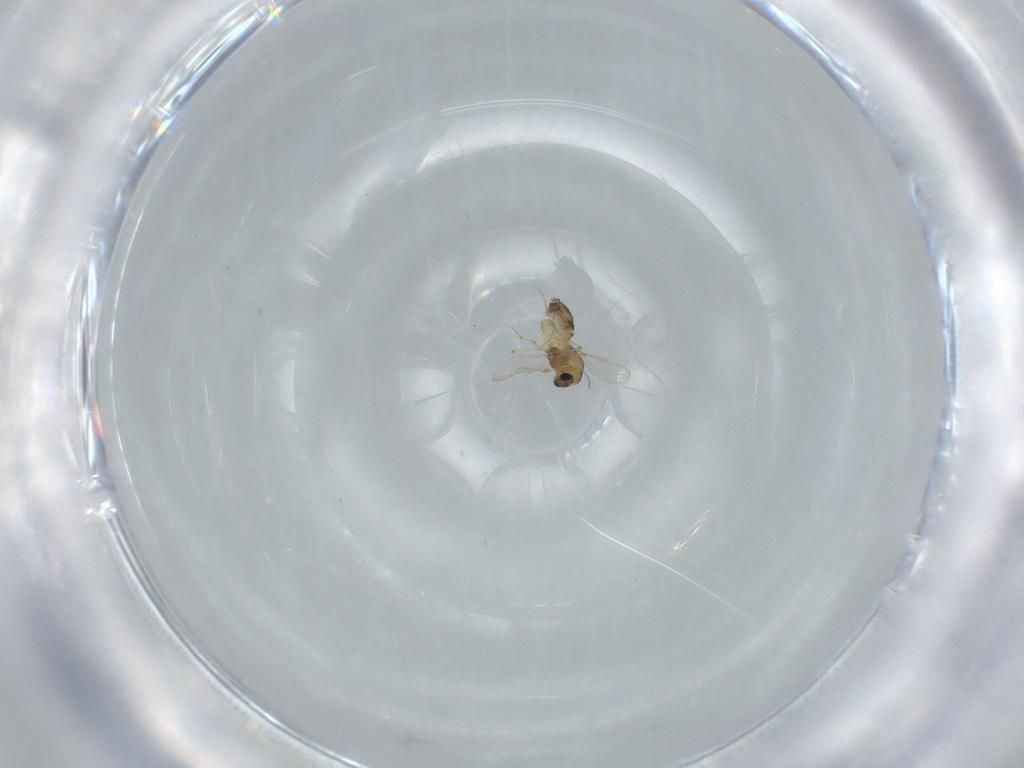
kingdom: Animalia
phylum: Arthropoda
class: Insecta
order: Diptera
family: Chironomidae
